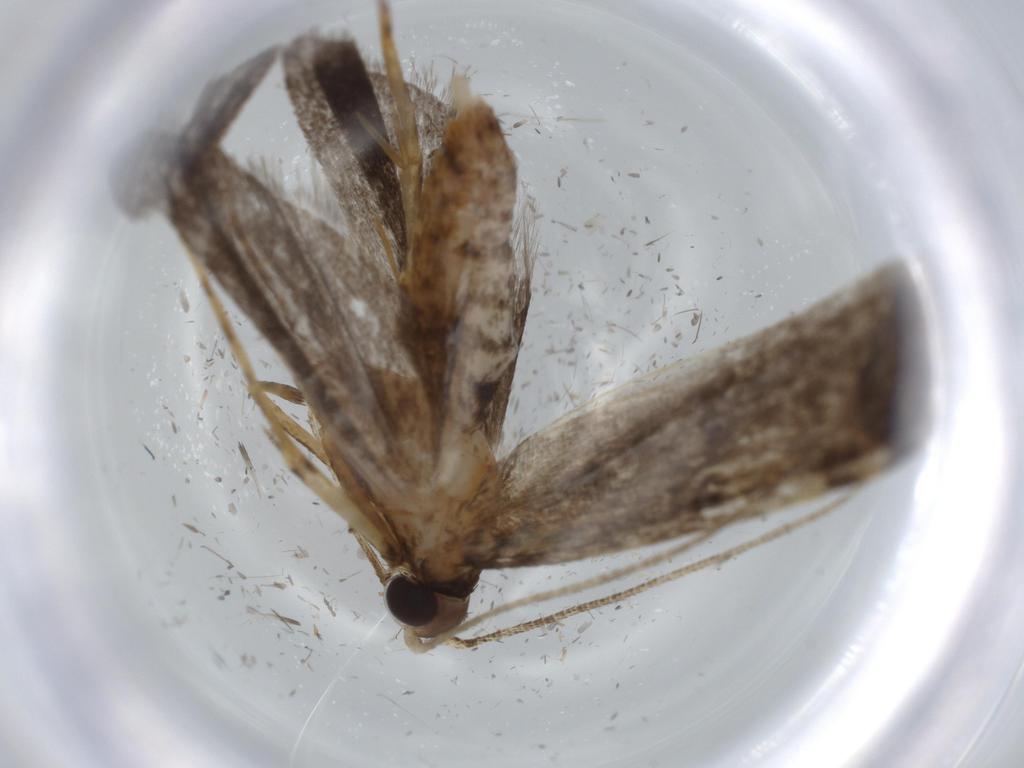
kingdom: Animalia
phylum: Arthropoda
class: Insecta
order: Lepidoptera
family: Autostichidae
